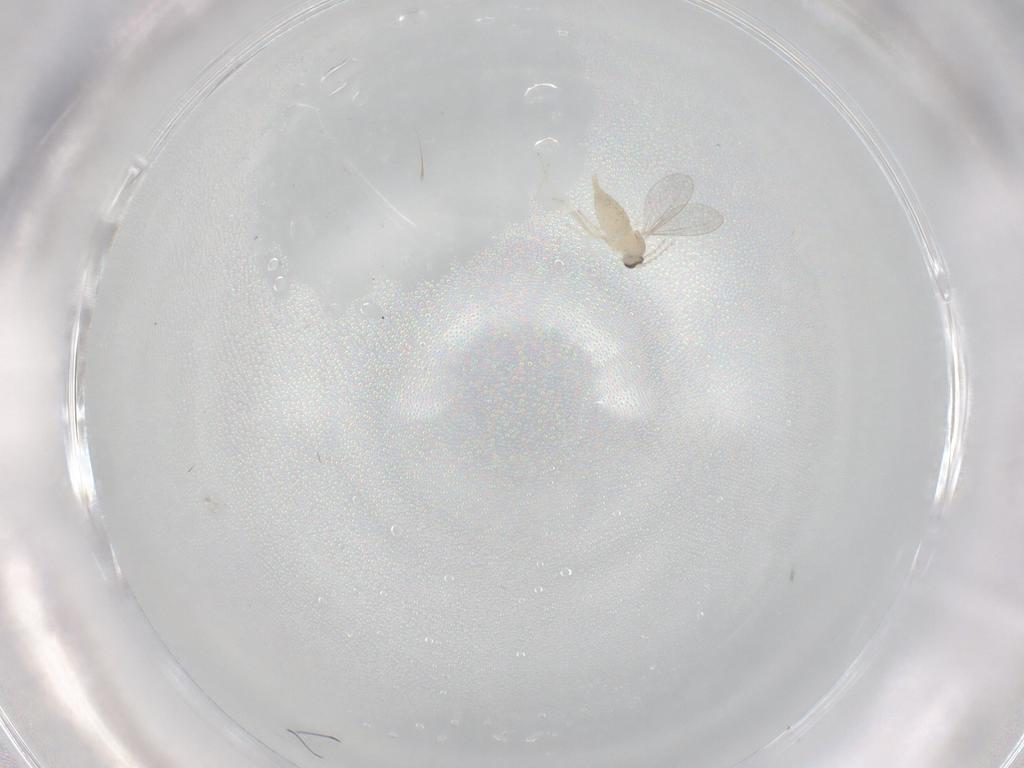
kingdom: Animalia
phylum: Arthropoda
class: Insecta
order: Diptera
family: Cecidomyiidae
